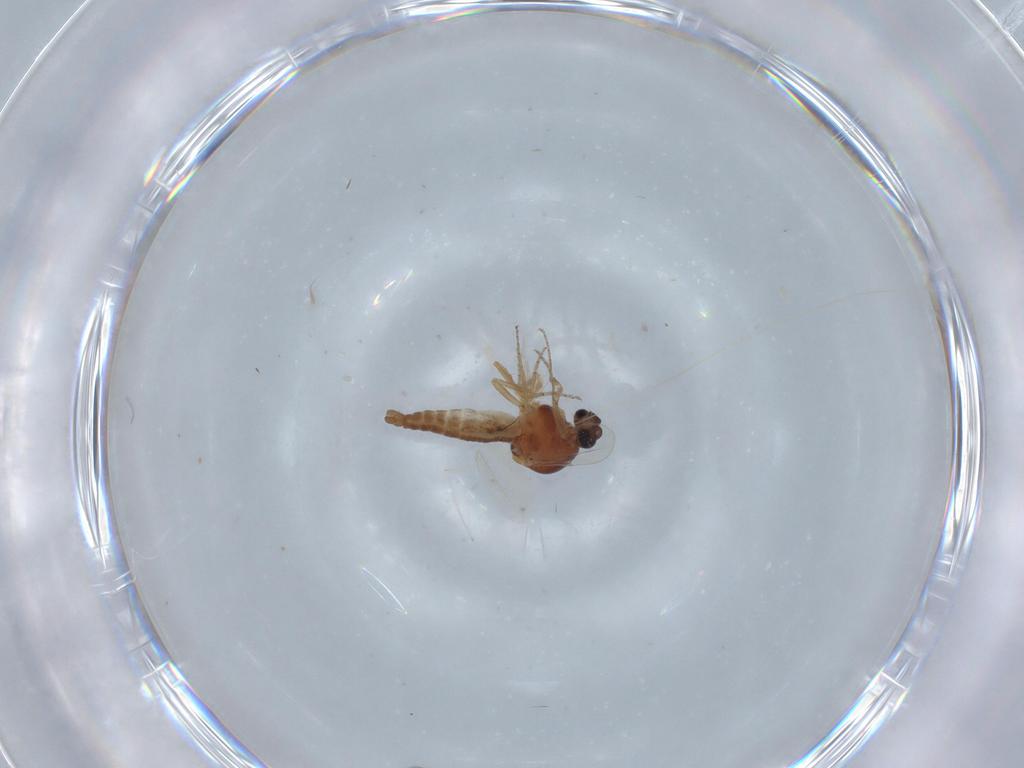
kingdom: Animalia
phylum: Arthropoda
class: Insecta
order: Diptera
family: Ceratopogonidae
